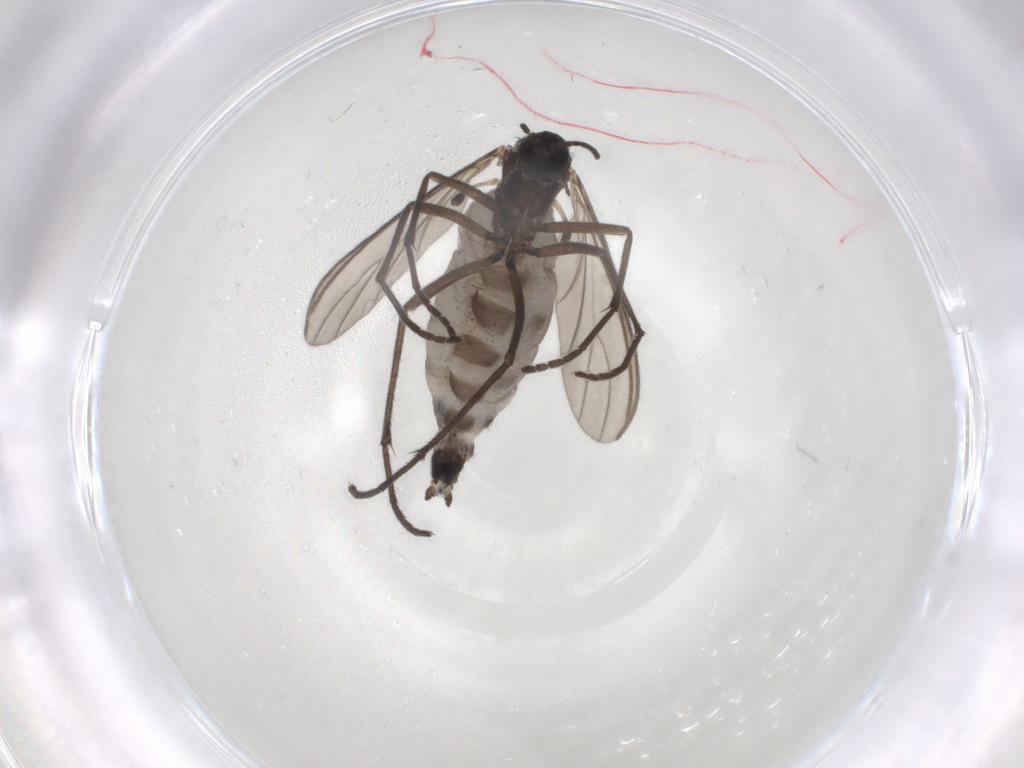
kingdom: Animalia
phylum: Arthropoda
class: Insecta
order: Diptera
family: Sciaridae
